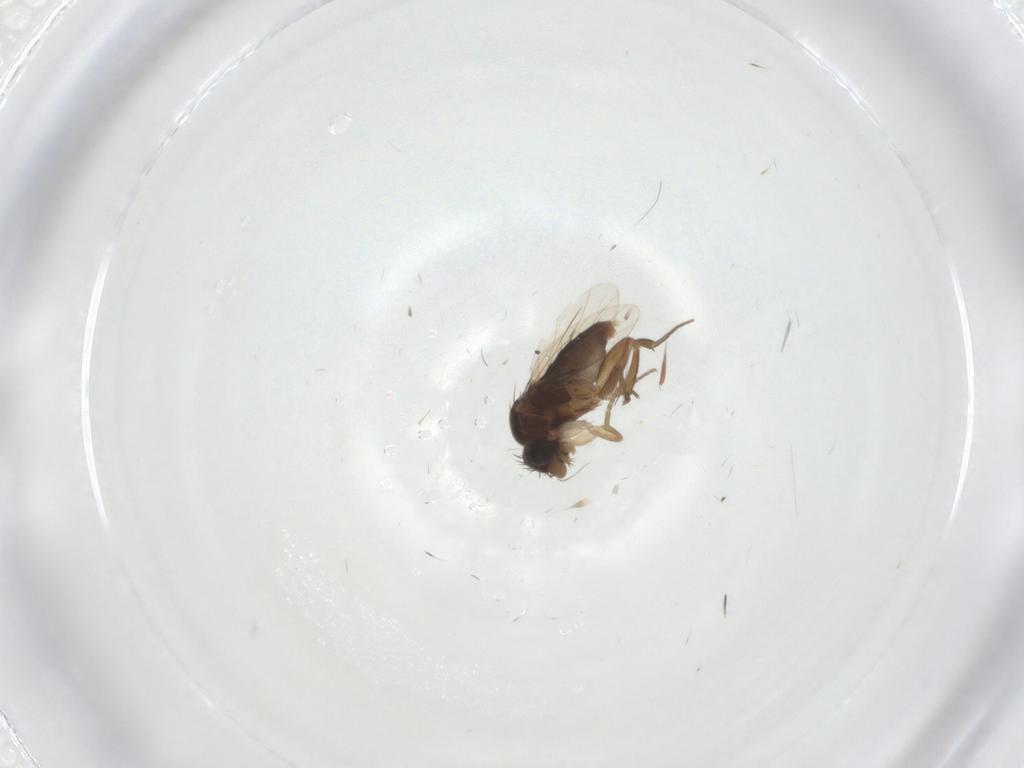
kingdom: Animalia
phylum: Arthropoda
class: Insecta
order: Diptera
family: Phoridae
